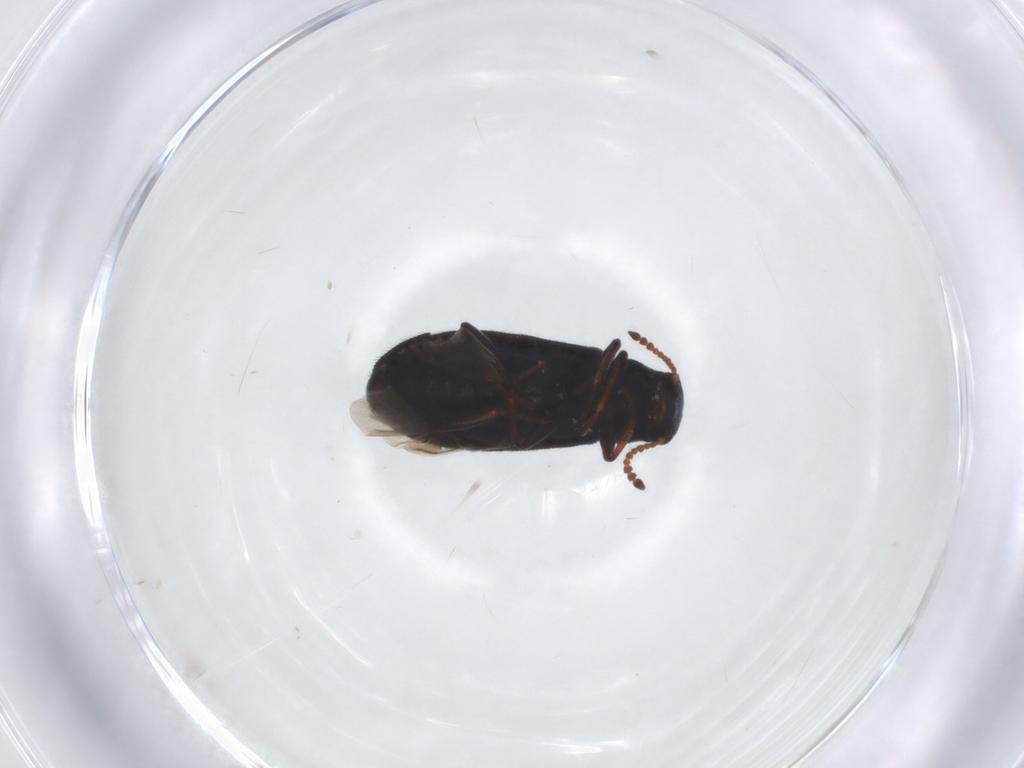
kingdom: Animalia
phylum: Arthropoda
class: Insecta
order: Coleoptera
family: Melyridae
